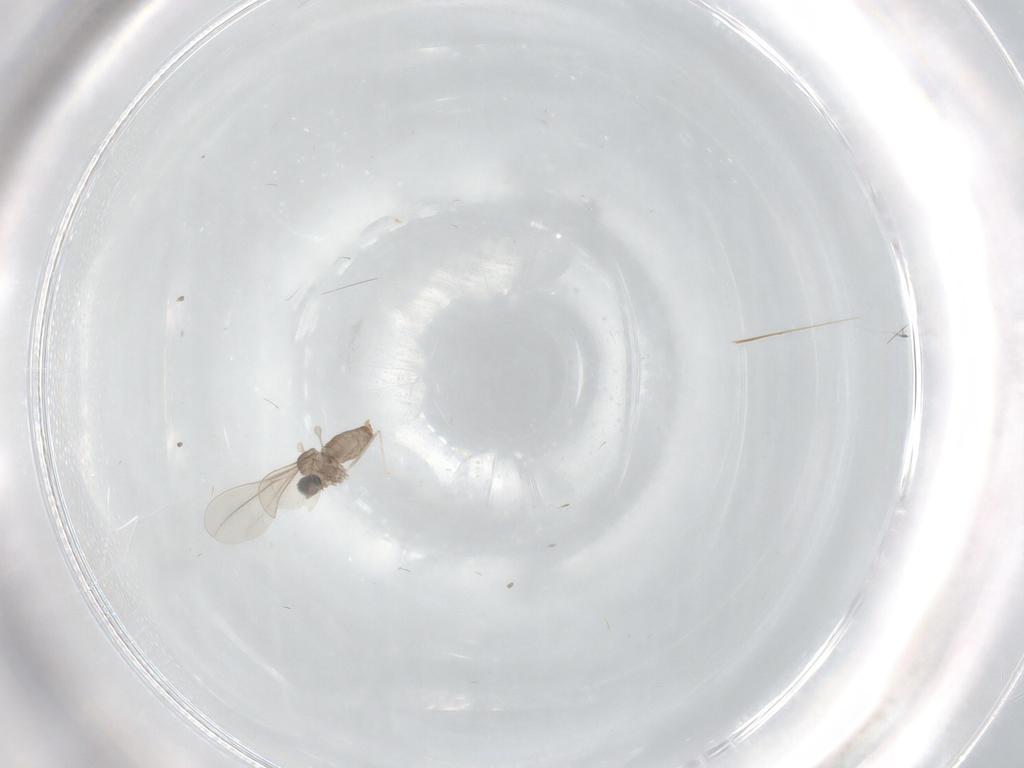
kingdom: Animalia
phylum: Arthropoda
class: Insecta
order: Diptera
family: Cecidomyiidae
